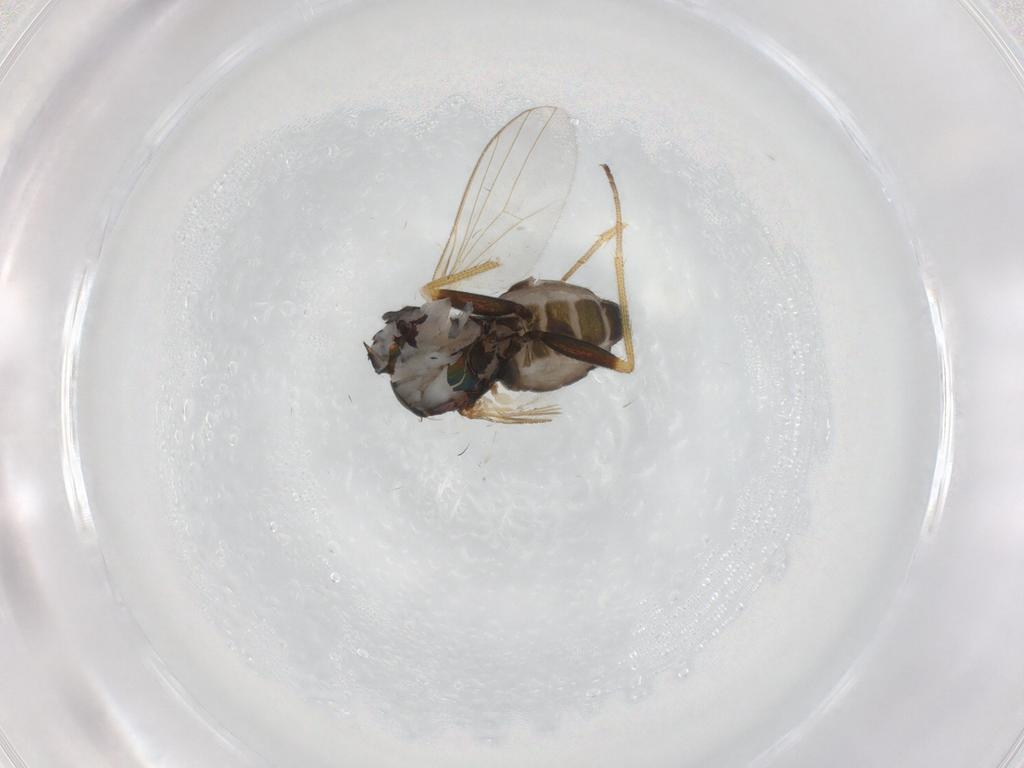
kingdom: Animalia
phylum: Arthropoda
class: Insecta
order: Diptera
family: Dolichopodidae
